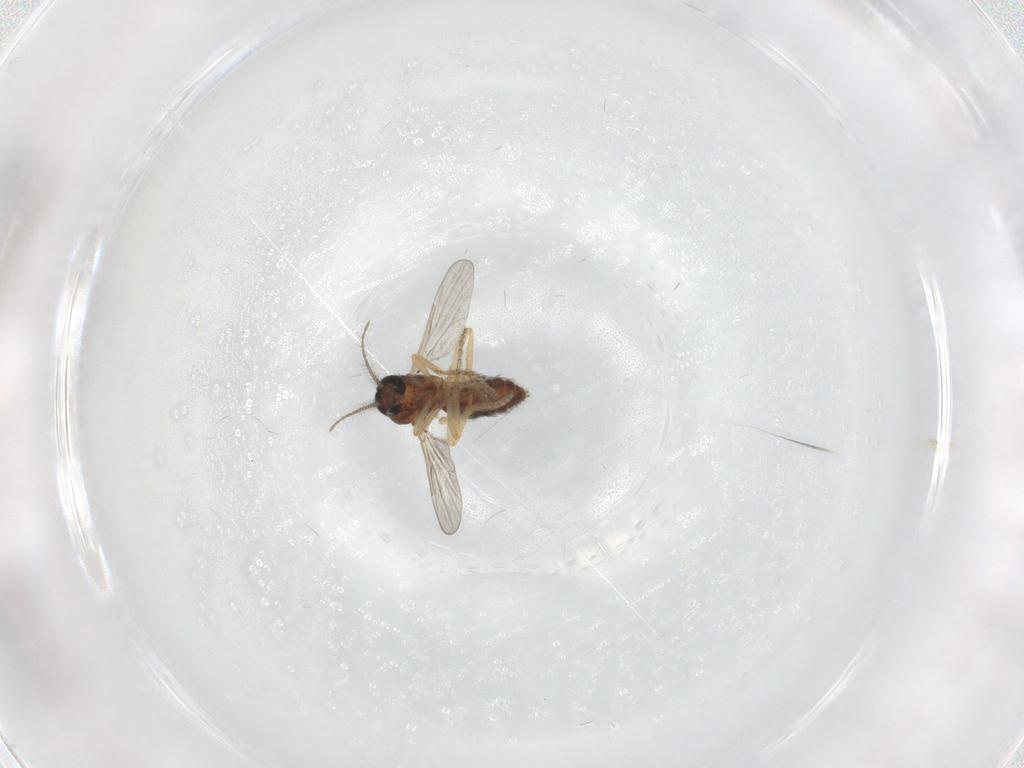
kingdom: Animalia
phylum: Arthropoda
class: Insecta
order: Diptera
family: Ceratopogonidae
